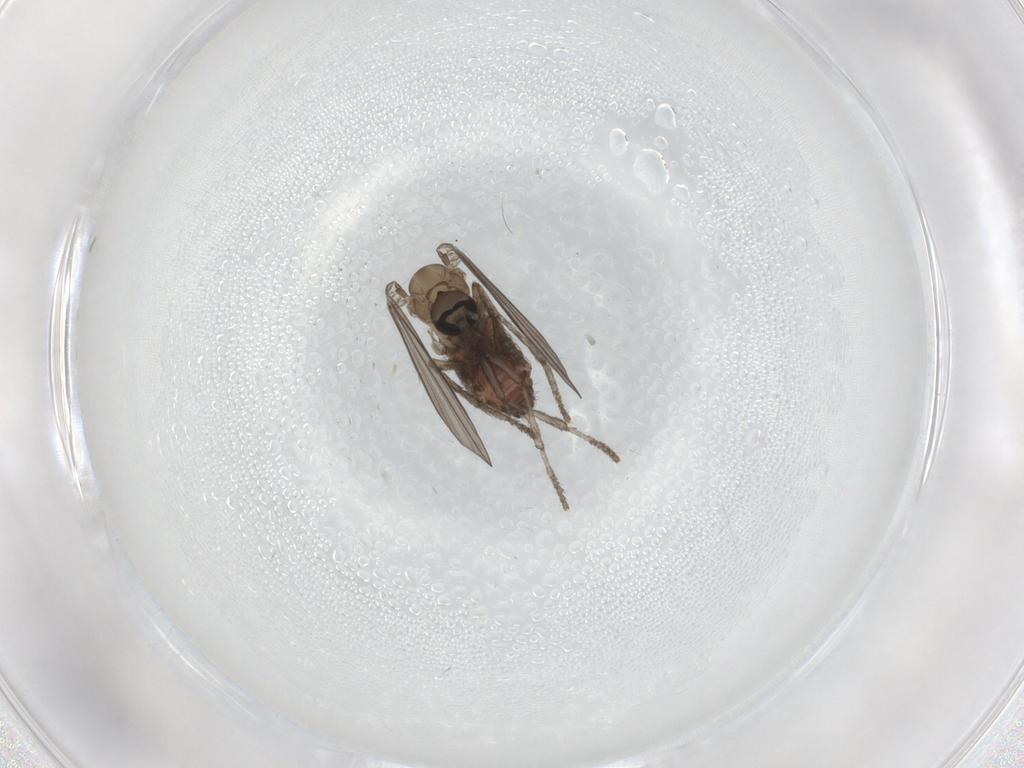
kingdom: Animalia
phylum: Arthropoda
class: Insecta
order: Diptera
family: Psychodidae
